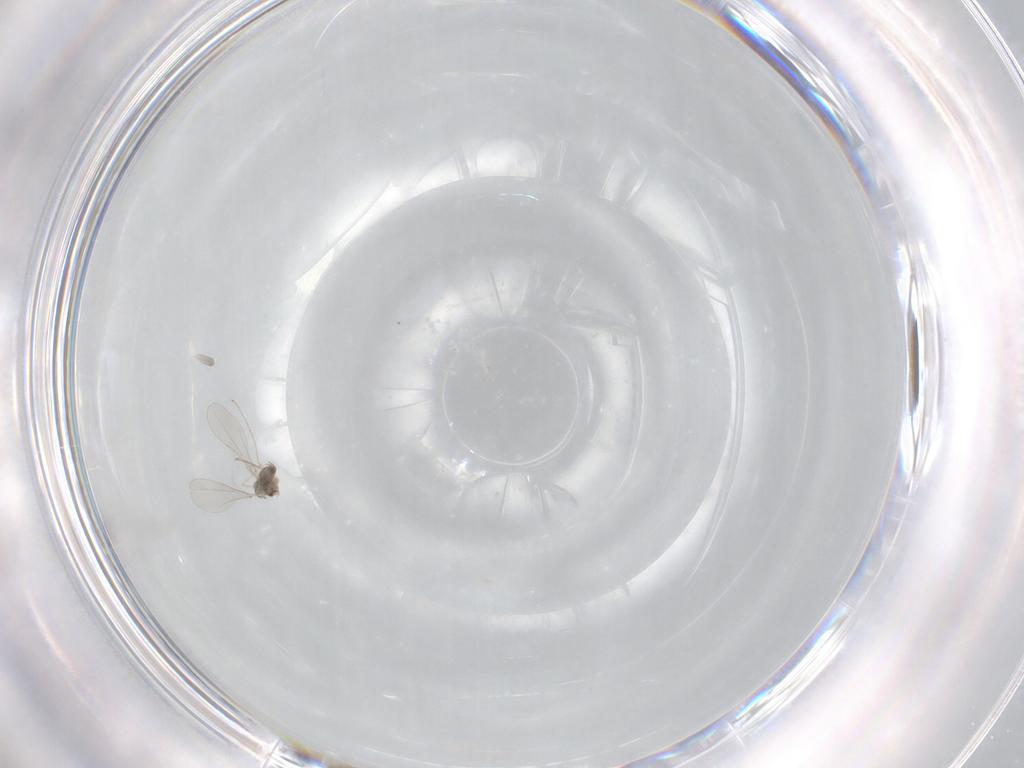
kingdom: Animalia
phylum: Arthropoda
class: Insecta
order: Diptera
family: Cecidomyiidae
